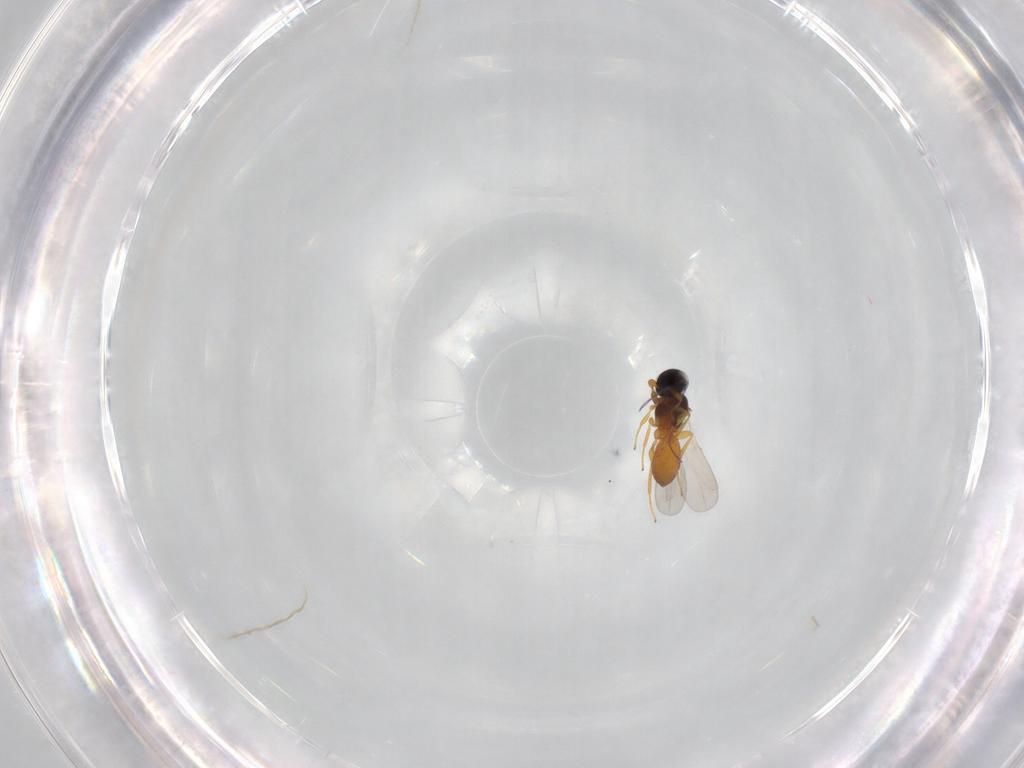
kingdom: Animalia
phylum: Arthropoda
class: Insecta
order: Hymenoptera
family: Platygastridae
